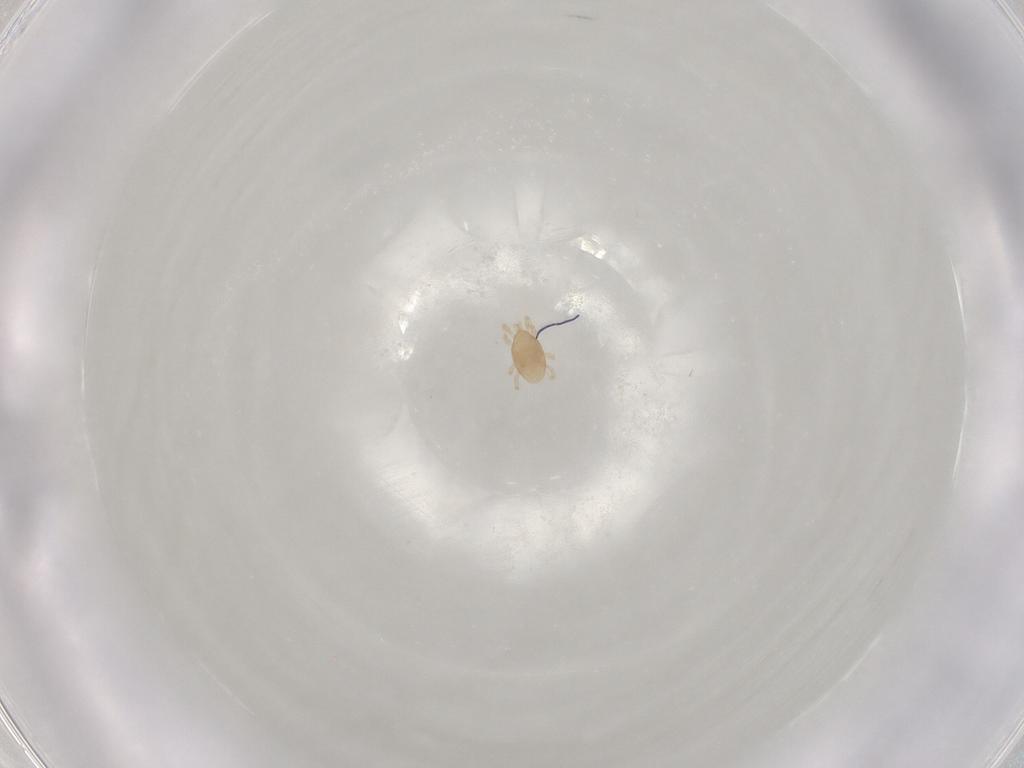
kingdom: Animalia
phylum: Arthropoda
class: Arachnida
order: Mesostigmata
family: Melicharidae
